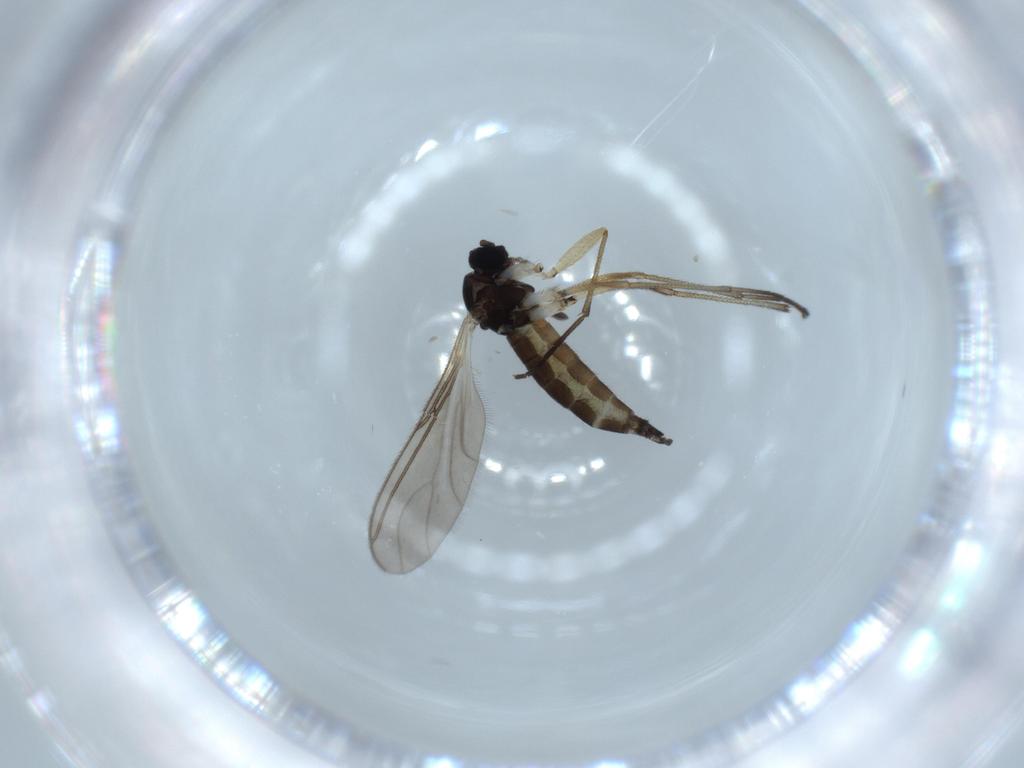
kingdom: Animalia
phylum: Arthropoda
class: Insecta
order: Diptera
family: Sciaridae
